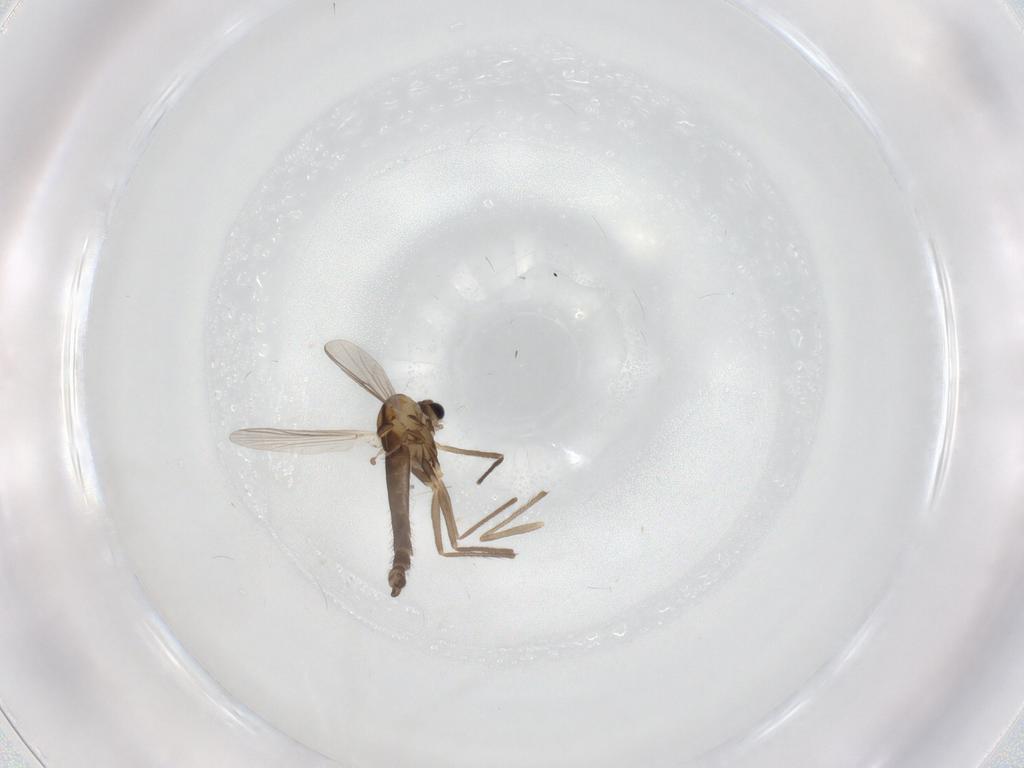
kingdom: Animalia
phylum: Arthropoda
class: Insecta
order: Diptera
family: Chironomidae
